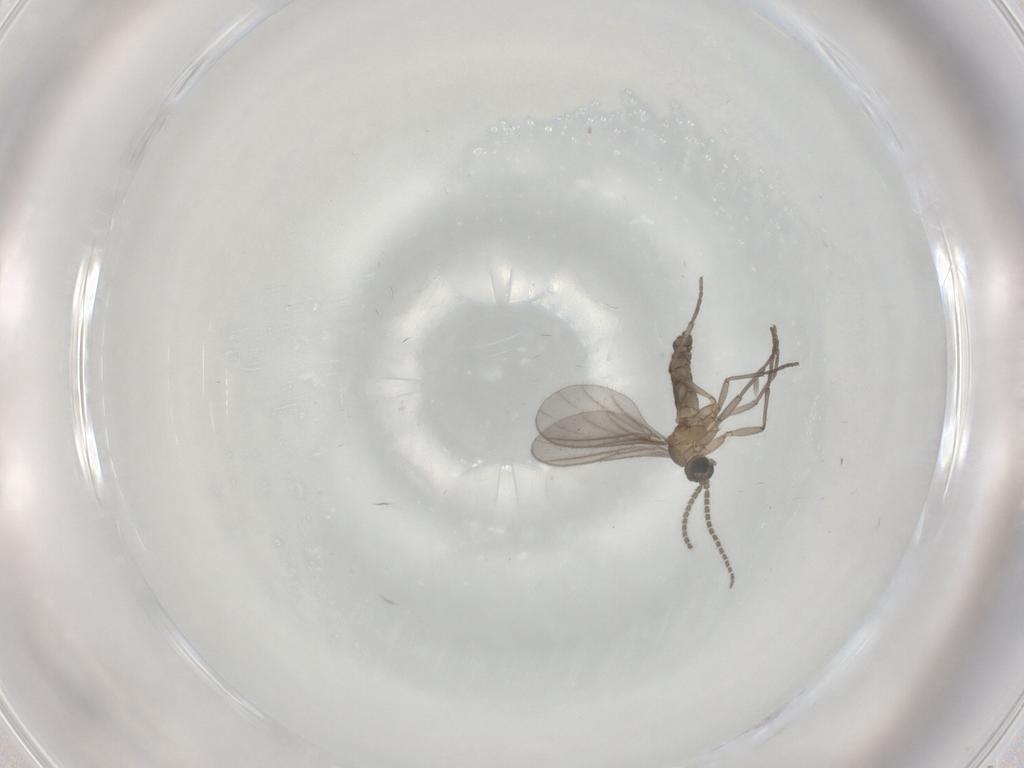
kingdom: Animalia
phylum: Arthropoda
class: Insecta
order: Diptera
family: Sciaridae
